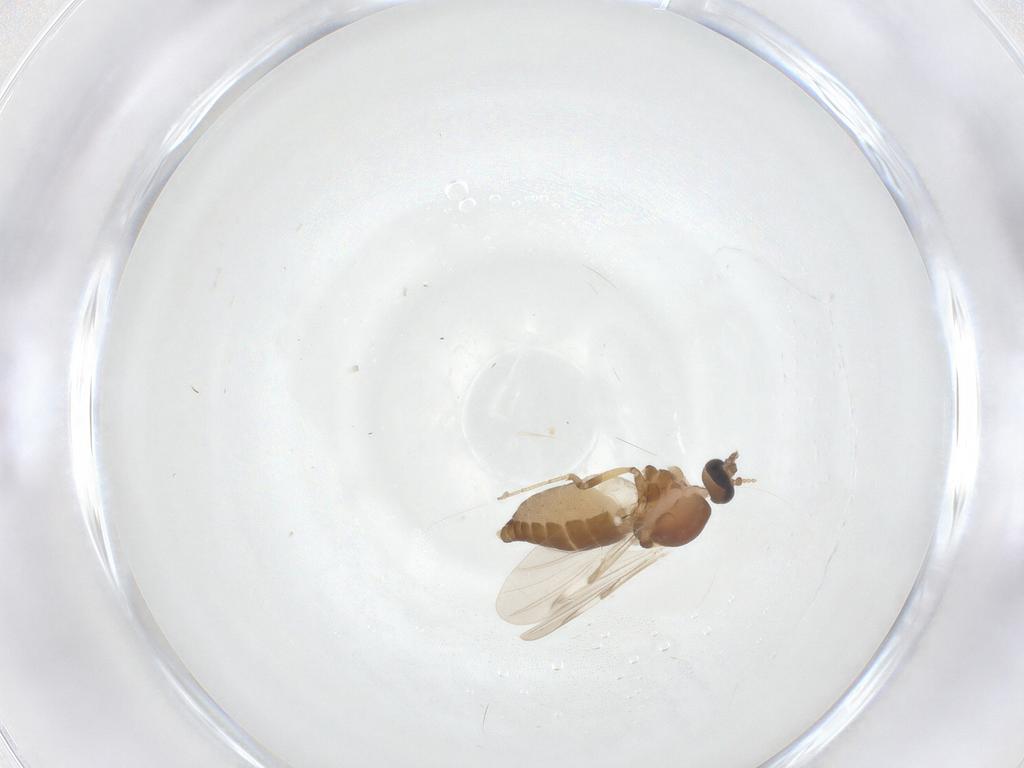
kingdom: Animalia
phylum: Arthropoda
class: Insecta
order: Diptera
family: Ceratopogonidae
